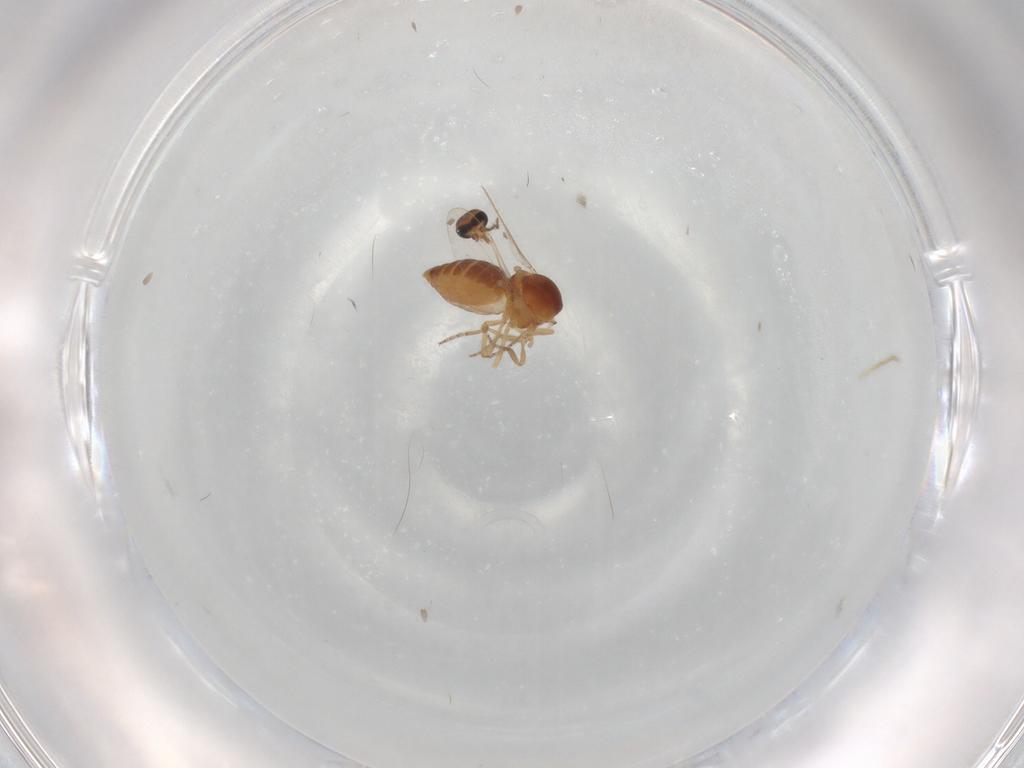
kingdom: Animalia
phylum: Arthropoda
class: Insecta
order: Diptera
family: Ceratopogonidae
